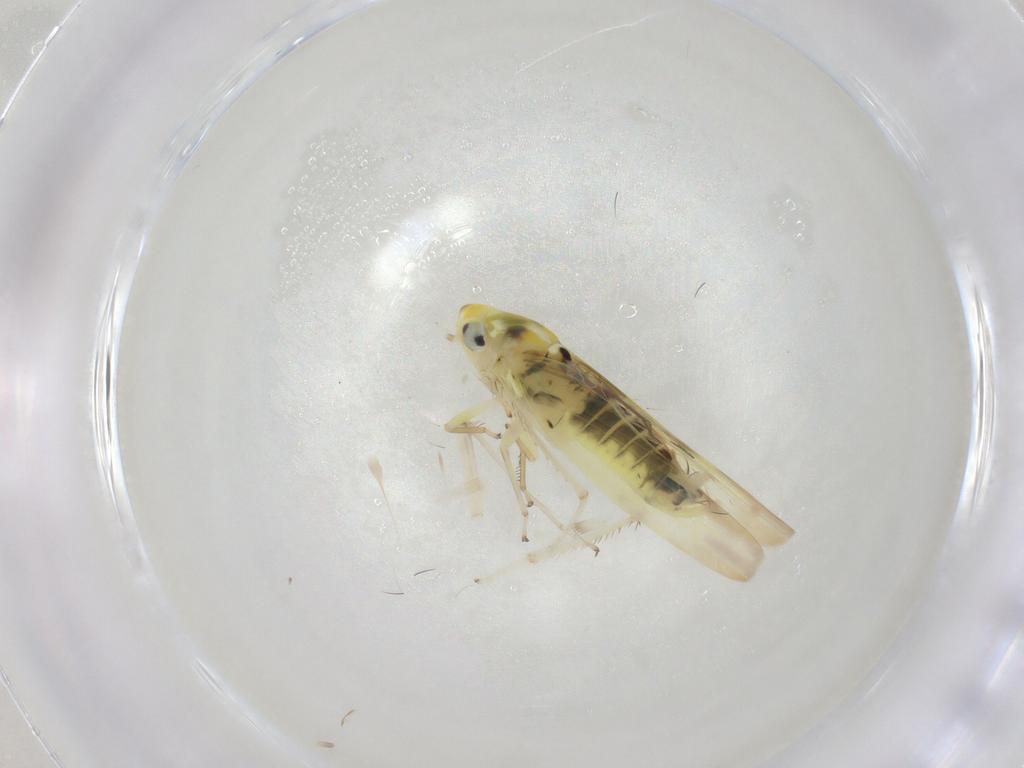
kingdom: Animalia
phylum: Arthropoda
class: Insecta
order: Hemiptera
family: Cicadellidae
